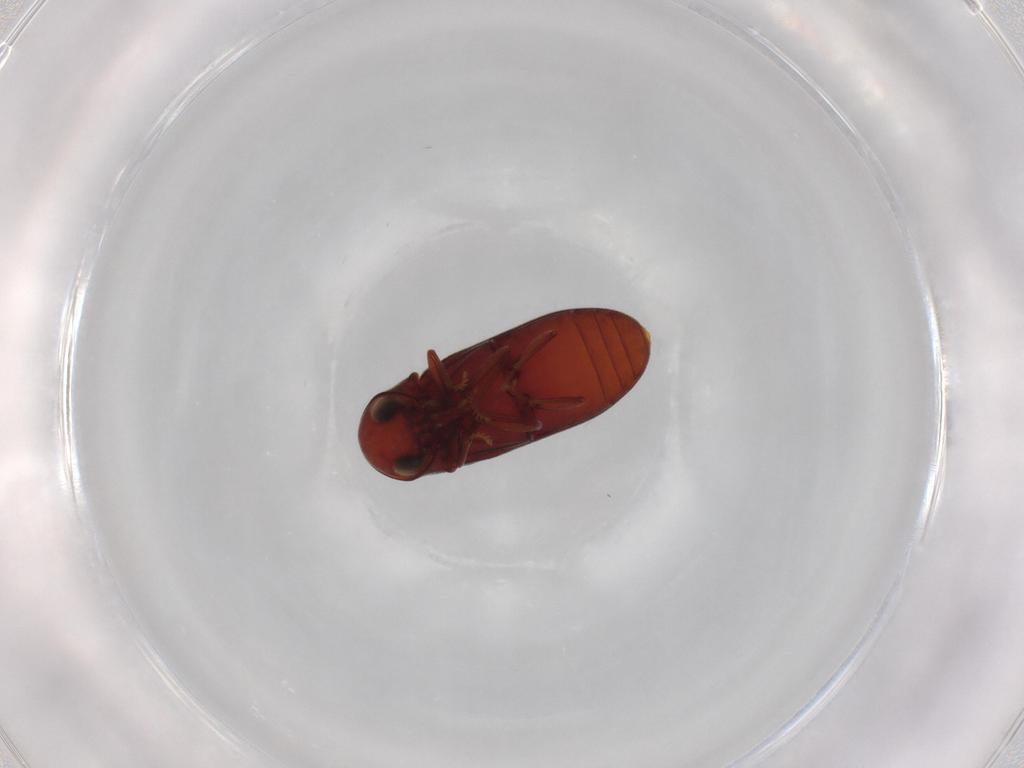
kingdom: Animalia
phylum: Arthropoda
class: Insecta
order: Coleoptera
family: Ptinidae
